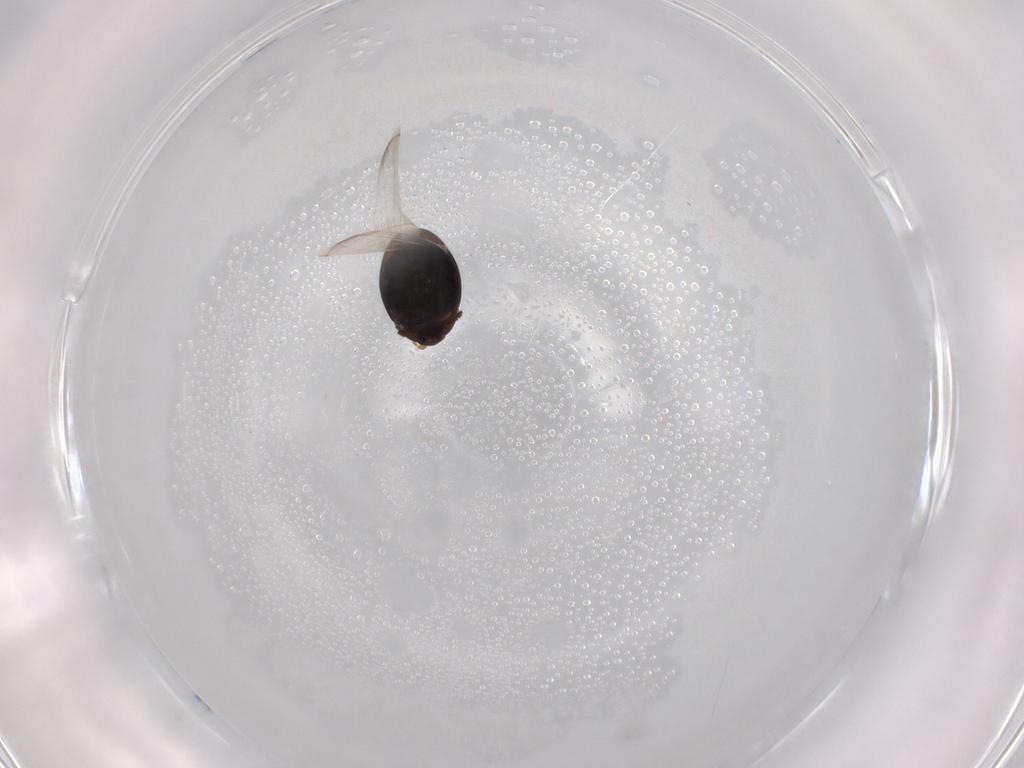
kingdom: Animalia
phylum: Arthropoda
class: Insecta
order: Coleoptera
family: Corylophidae
